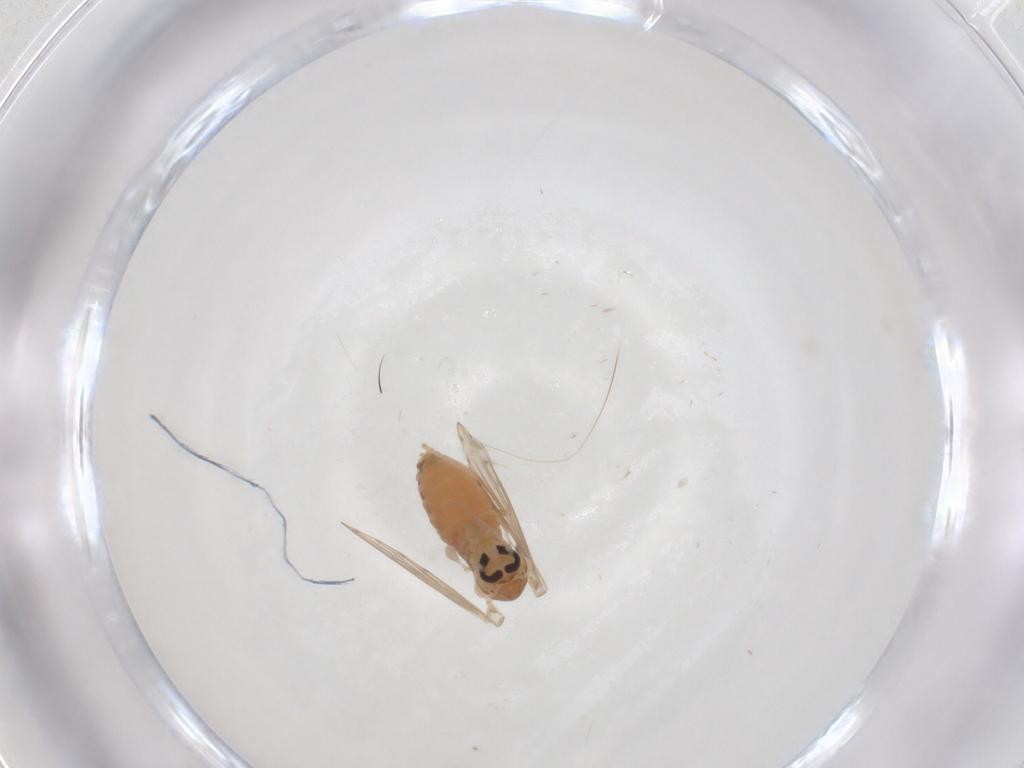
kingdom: Animalia
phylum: Arthropoda
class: Insecta
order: Diptera
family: Psychodidae
